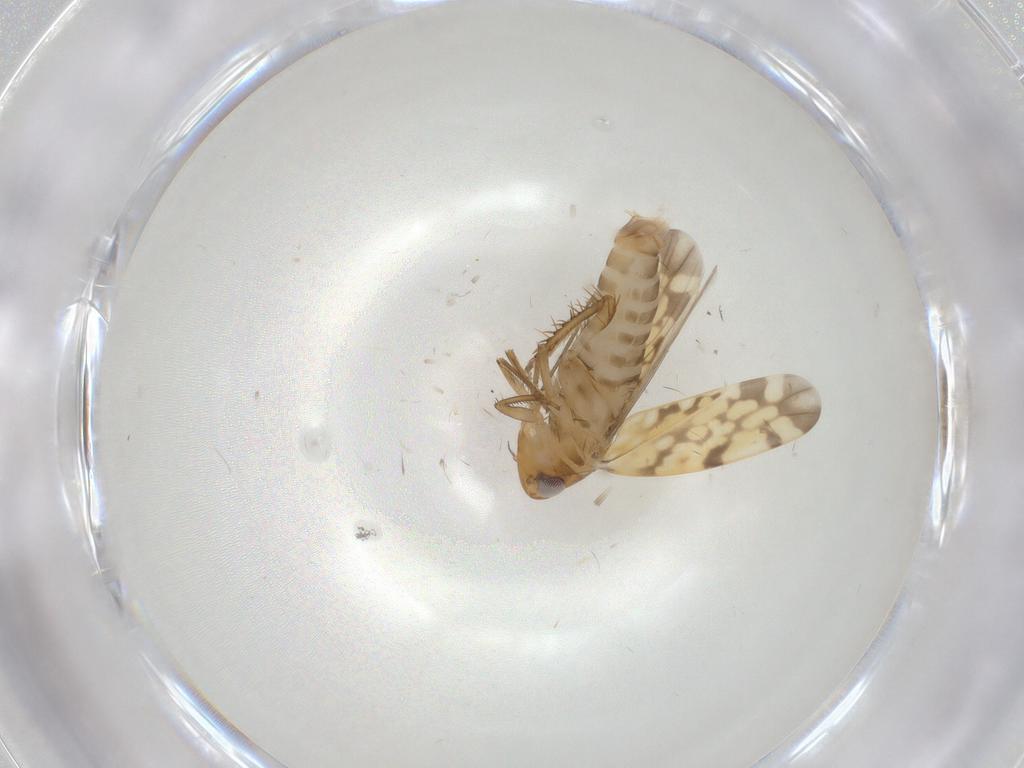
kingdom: Animalia
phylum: Arthropoda
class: Insecta
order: Hemiptera
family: Cicadellidae
